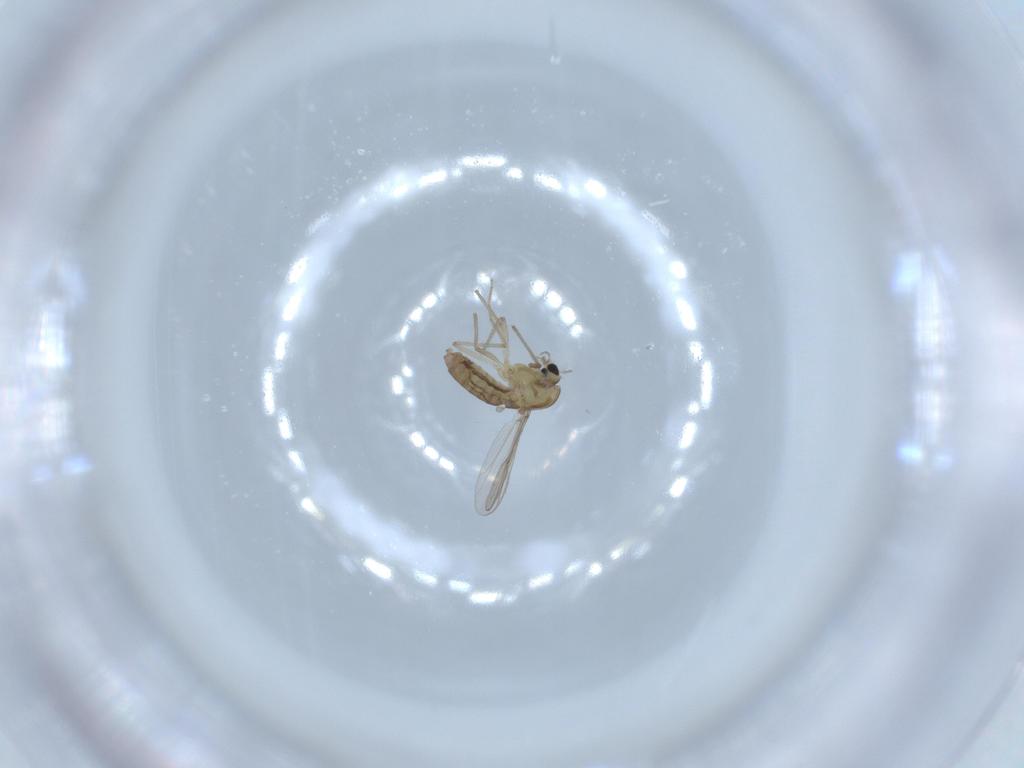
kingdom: Animalia
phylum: Arthropoda
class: Insecta
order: Diptera
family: Chironomidae
